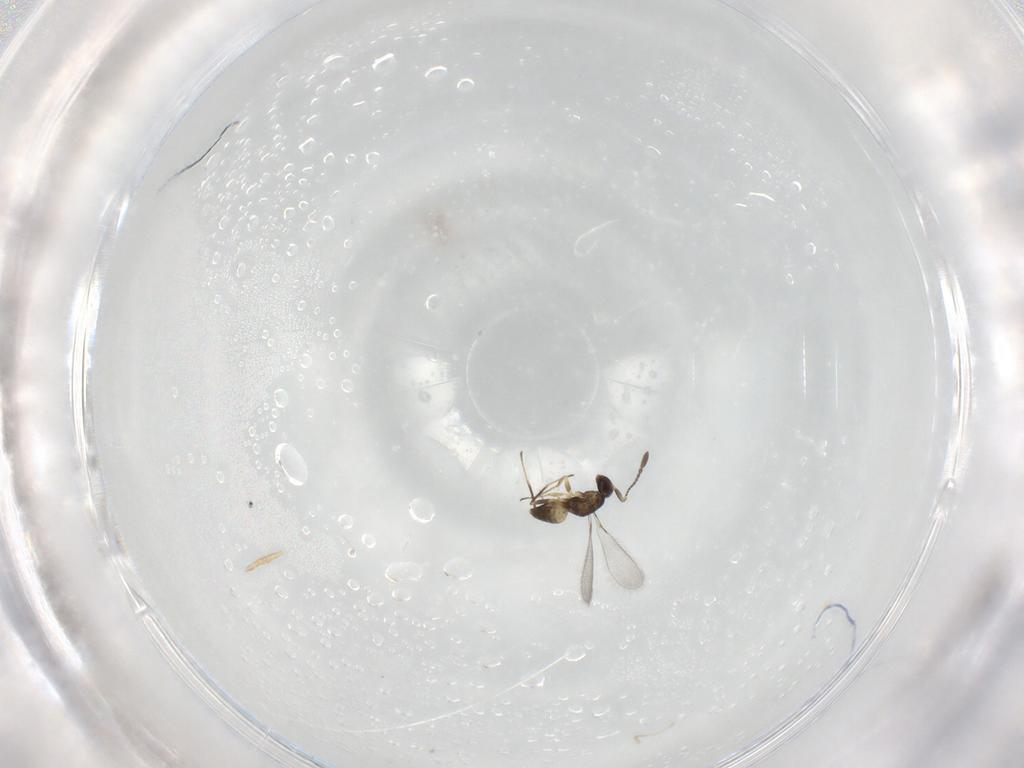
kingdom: Animalia
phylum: Arthropoda
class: Insecta
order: Hymenoptera
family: Mymaridae
